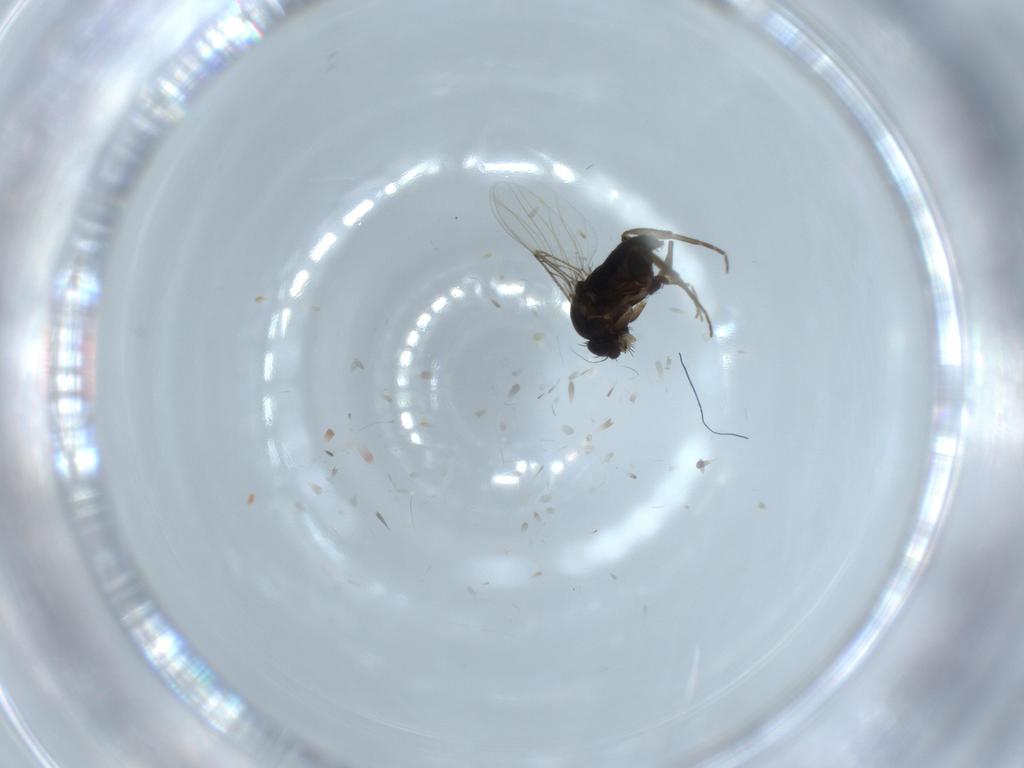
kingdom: Animalia
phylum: Arthropoda
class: Insecta
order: Diptera
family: Phoridae
